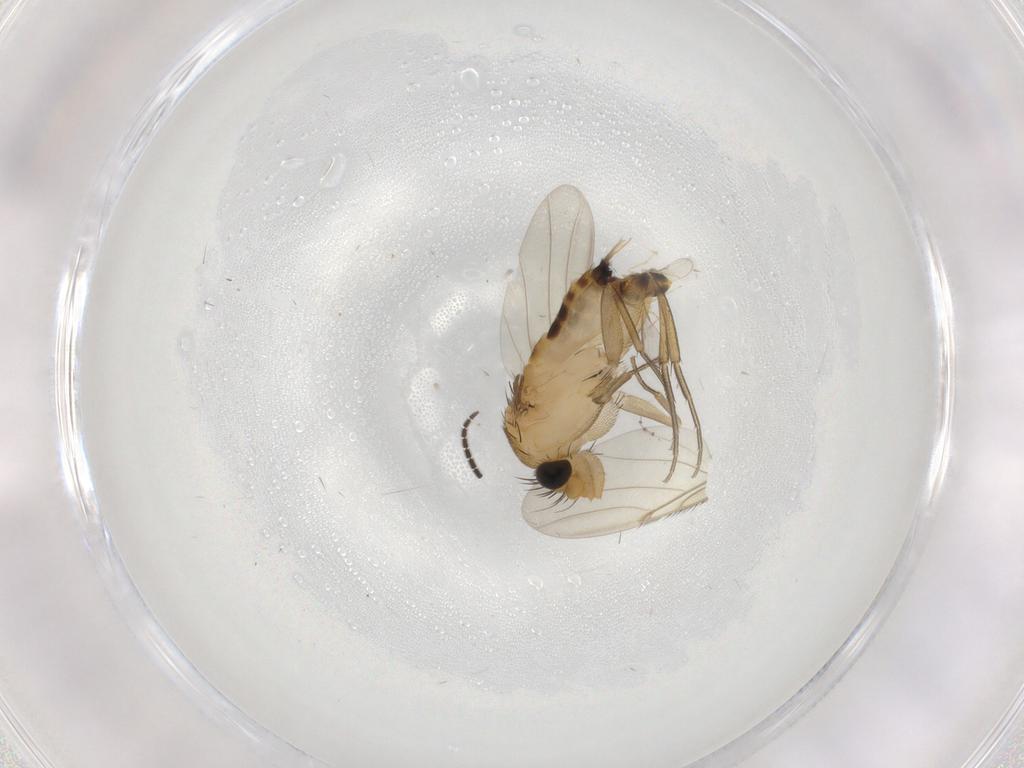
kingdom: Animalia
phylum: Arthropoda
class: Insecta
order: Diptera
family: Phoridae
